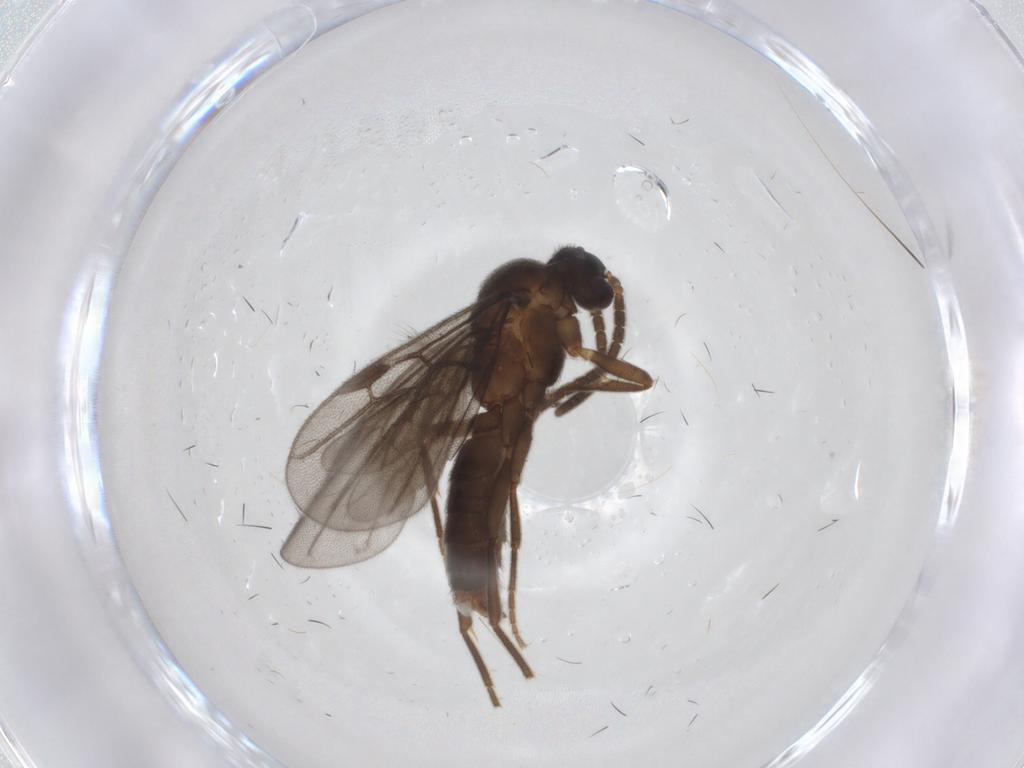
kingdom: Animalia
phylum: Arthropoda
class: Insecta
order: Hymenoptera
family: Formicidae
